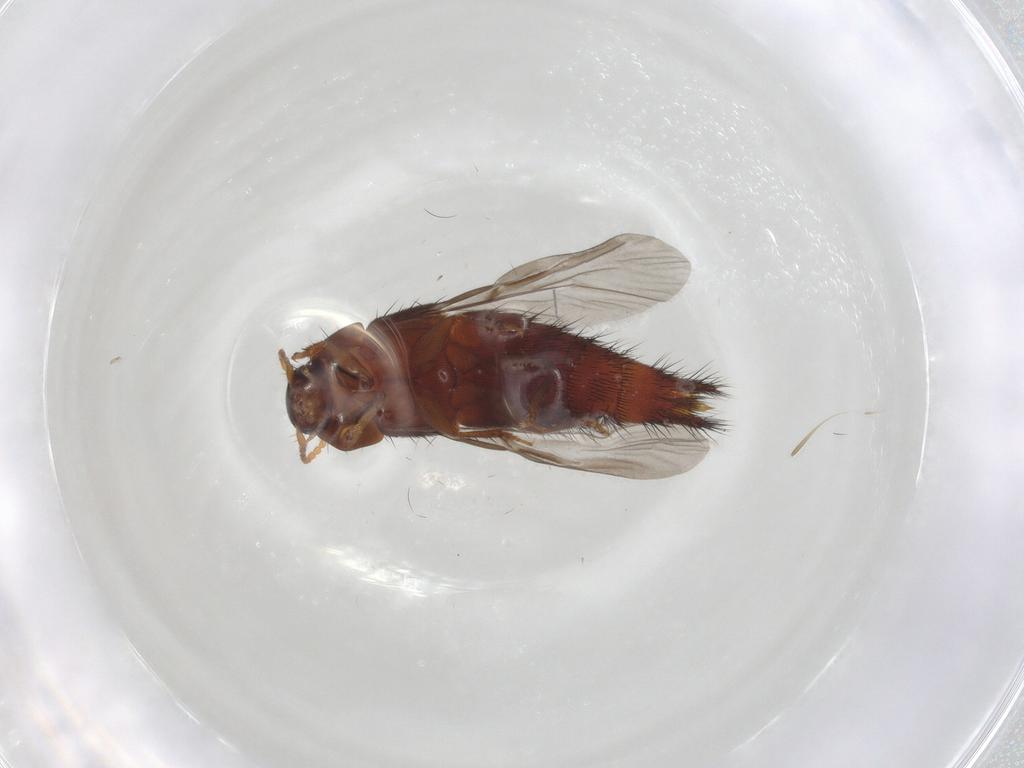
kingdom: Animalia
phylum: Arthropoda
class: Insecta
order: Coleoptera
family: Staphylinidae
